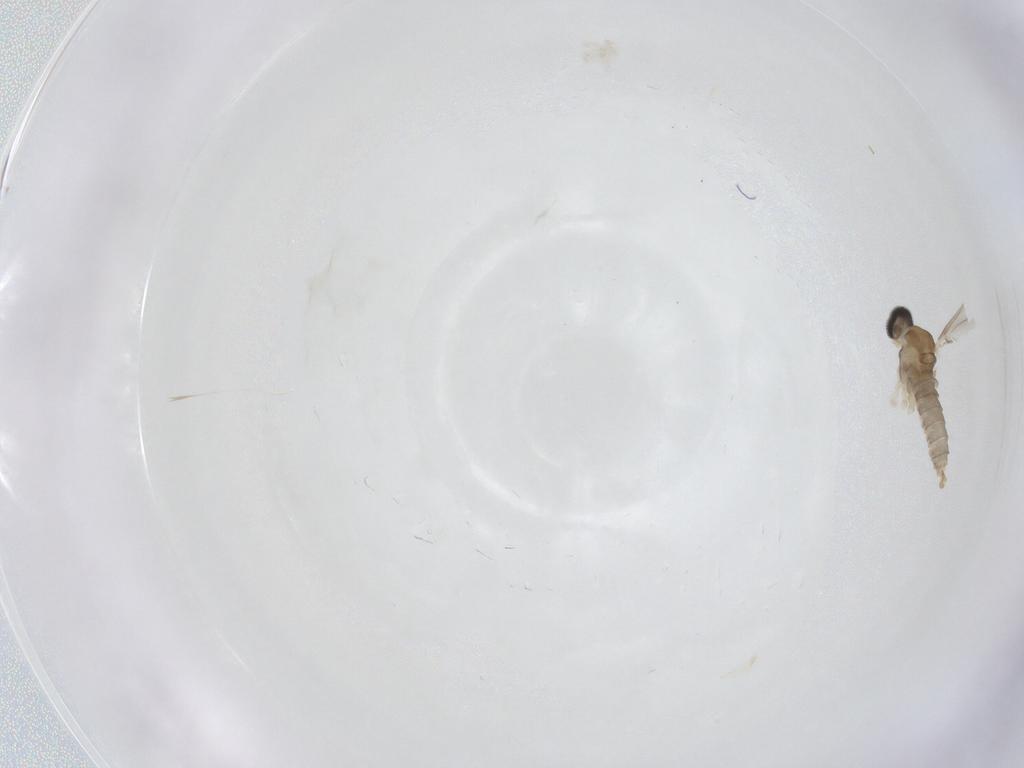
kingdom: Animalia
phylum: Arthropoda
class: Insecta
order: Diptera
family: Cecidomyiidae
